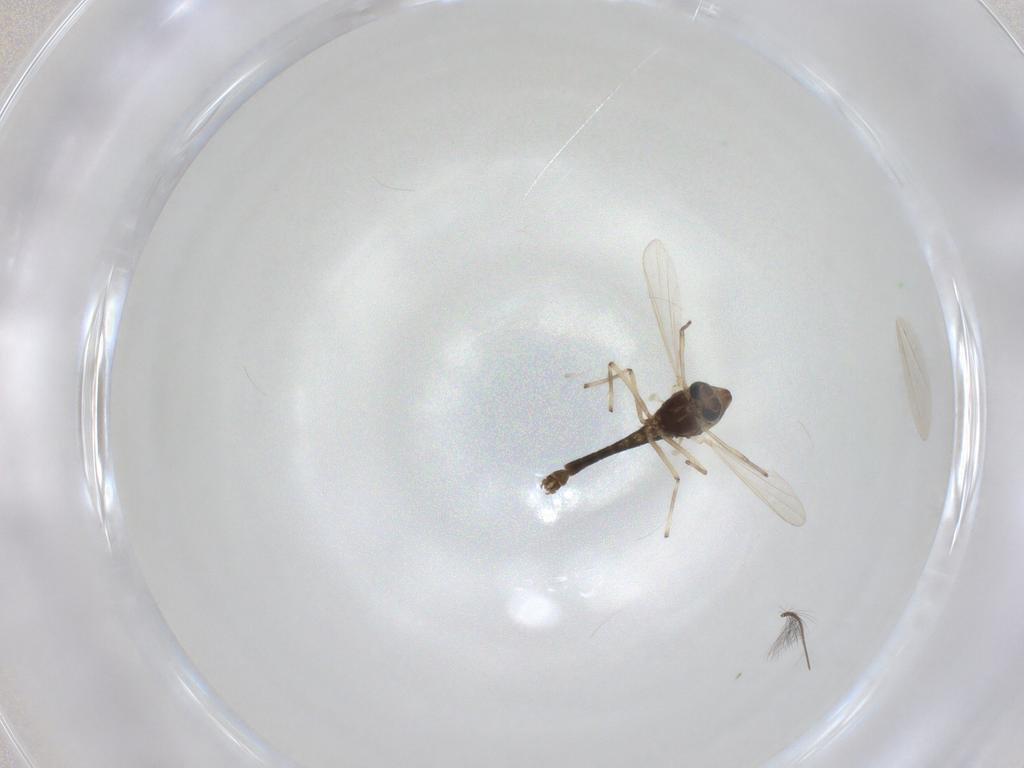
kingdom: Animalia
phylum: Arthropoda
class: Insecta
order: Diptera
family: Chironomidae
